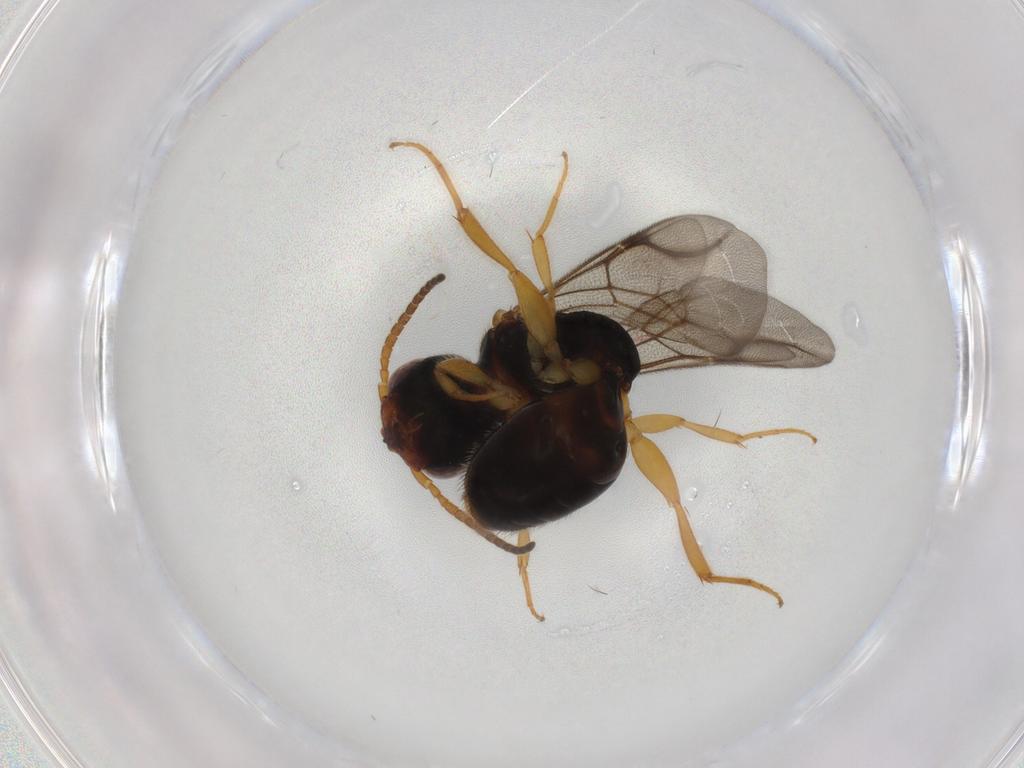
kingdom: Animalia
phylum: Arthropoda
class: Insecta
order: Hymenoptera
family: Bethylidae
